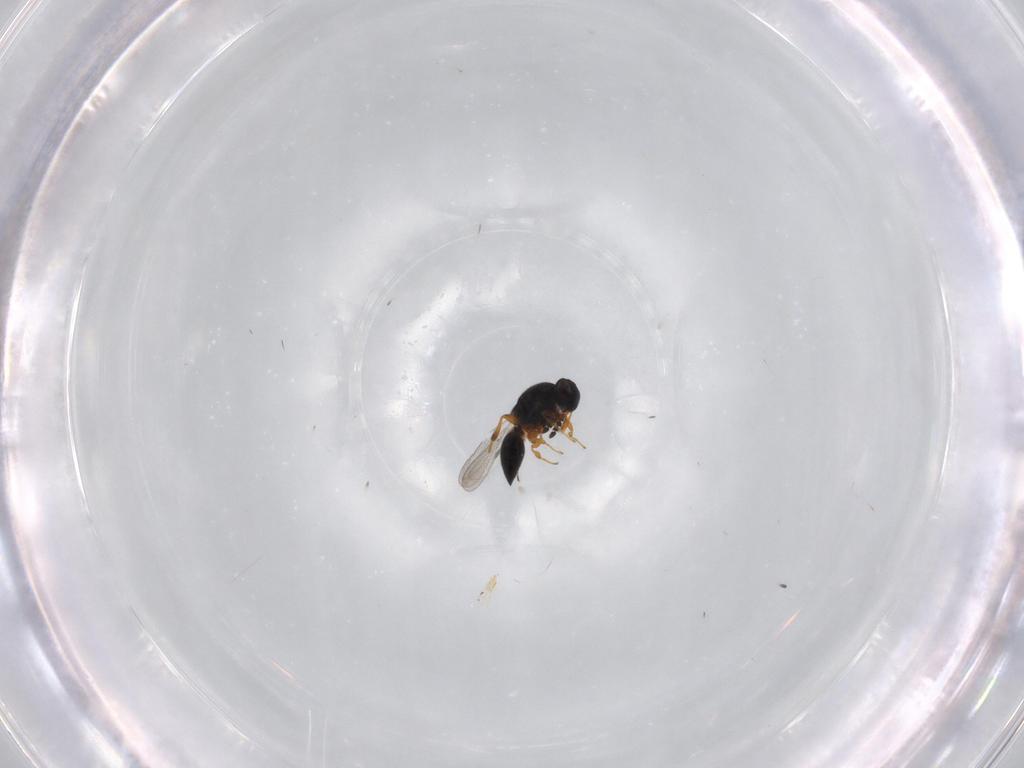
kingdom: Animalia
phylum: Arthropoda
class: Insecta
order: Hymenoptera
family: Platygastridae
